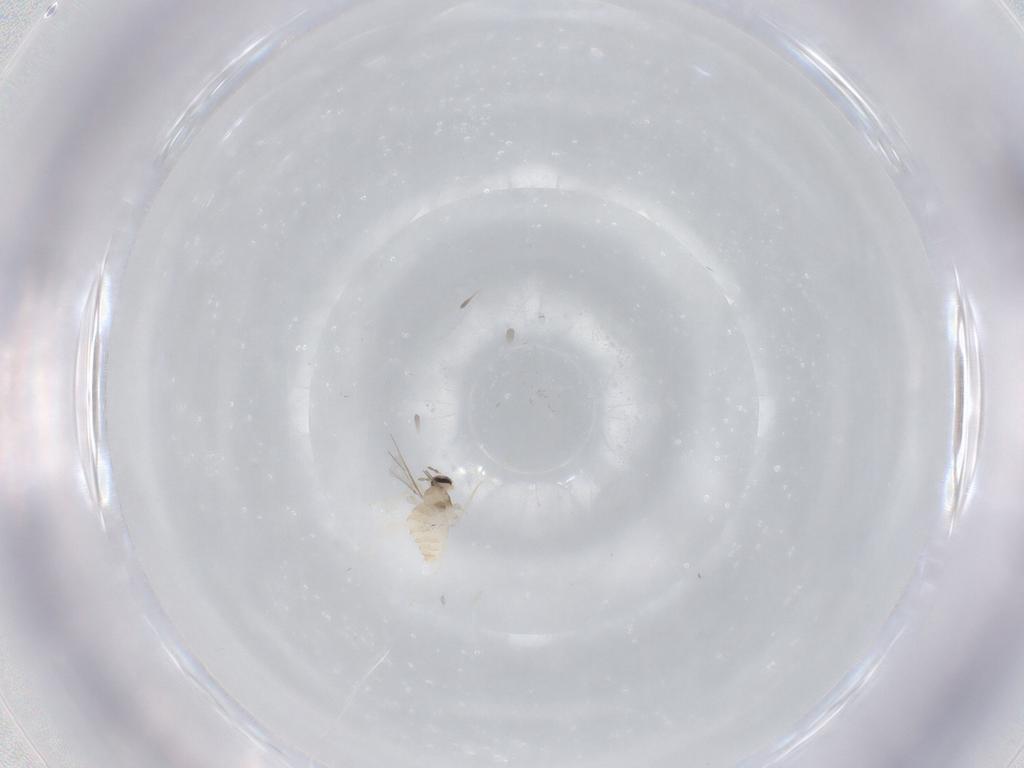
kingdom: Animalia
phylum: Arthropoda
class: Insecta
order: Diptera
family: Cecidomyiidae
